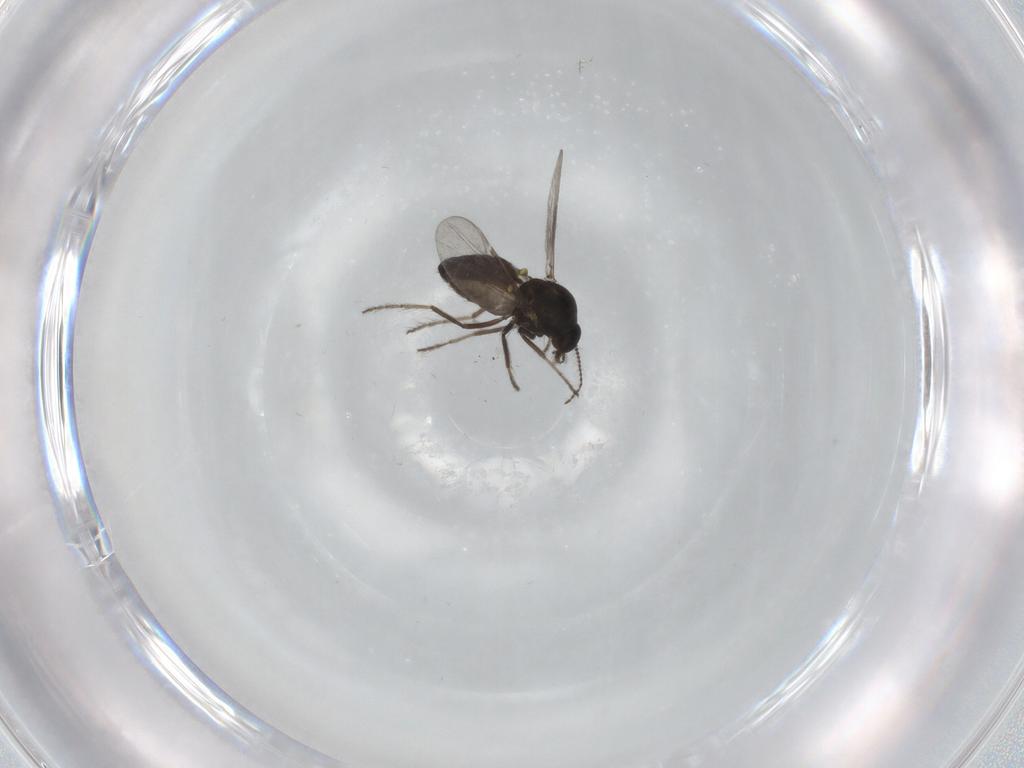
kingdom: Animalia
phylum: Arthropoda
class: Insecta
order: Diptera
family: Ceratopogonidae
